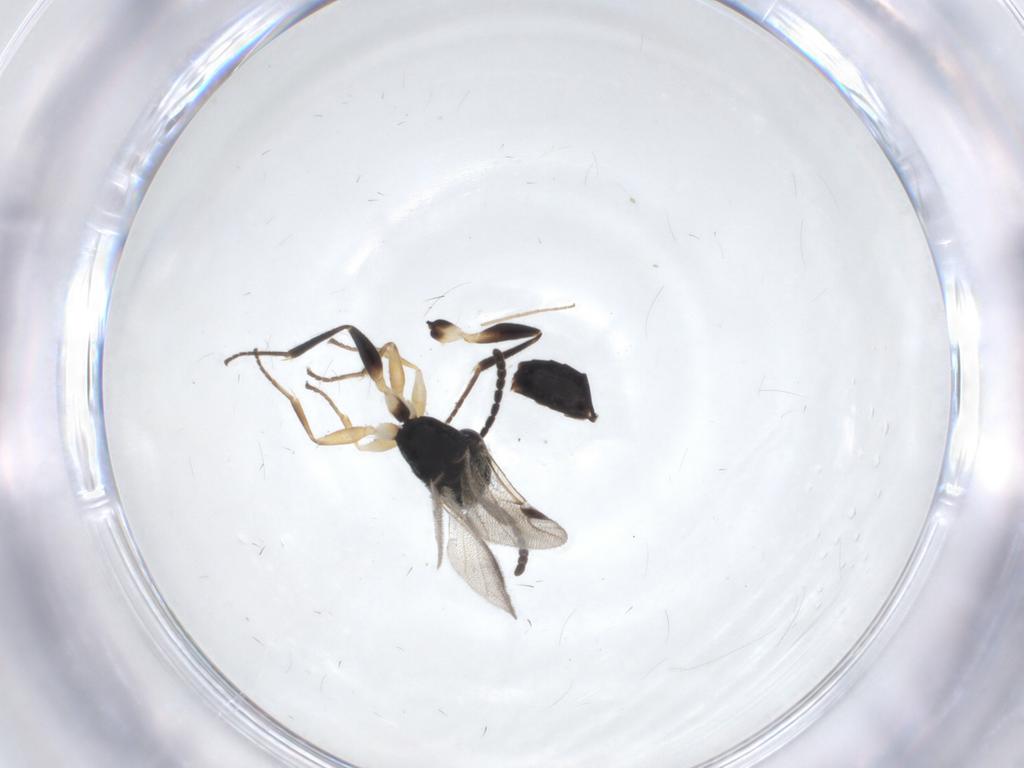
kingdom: Animalia
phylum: Arthropoda
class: Insecta
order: Hymenoptera
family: Dryinidae
